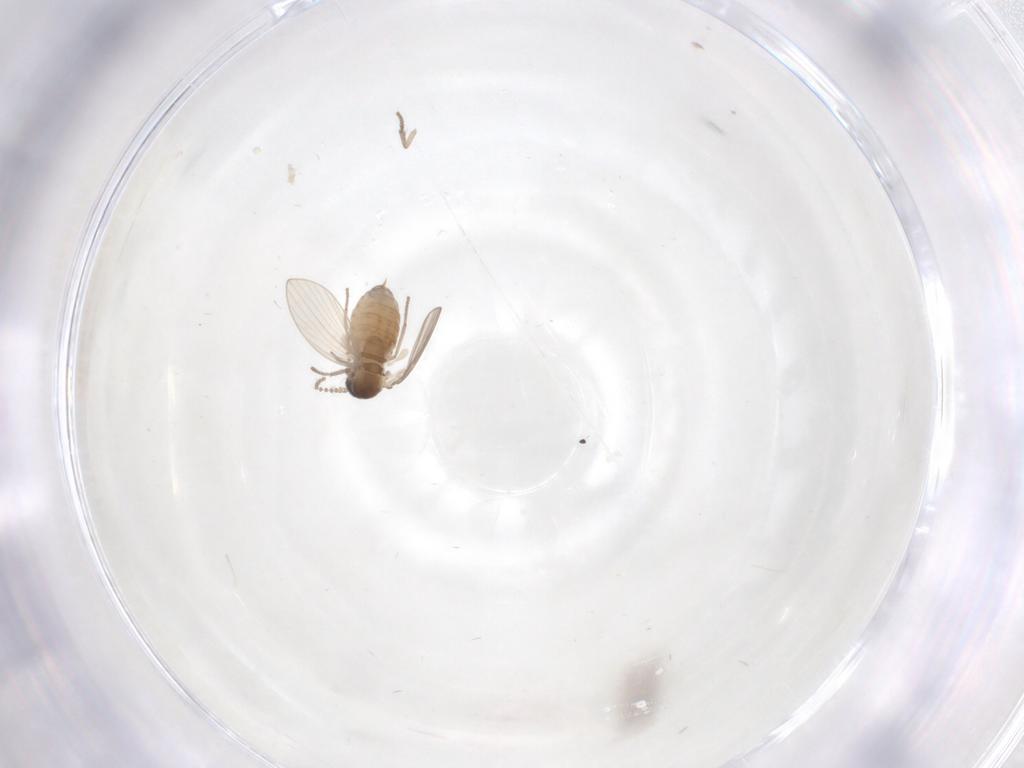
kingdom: Animalia
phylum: Arthropoda
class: Insecta
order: Diptera
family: Psychodidae
